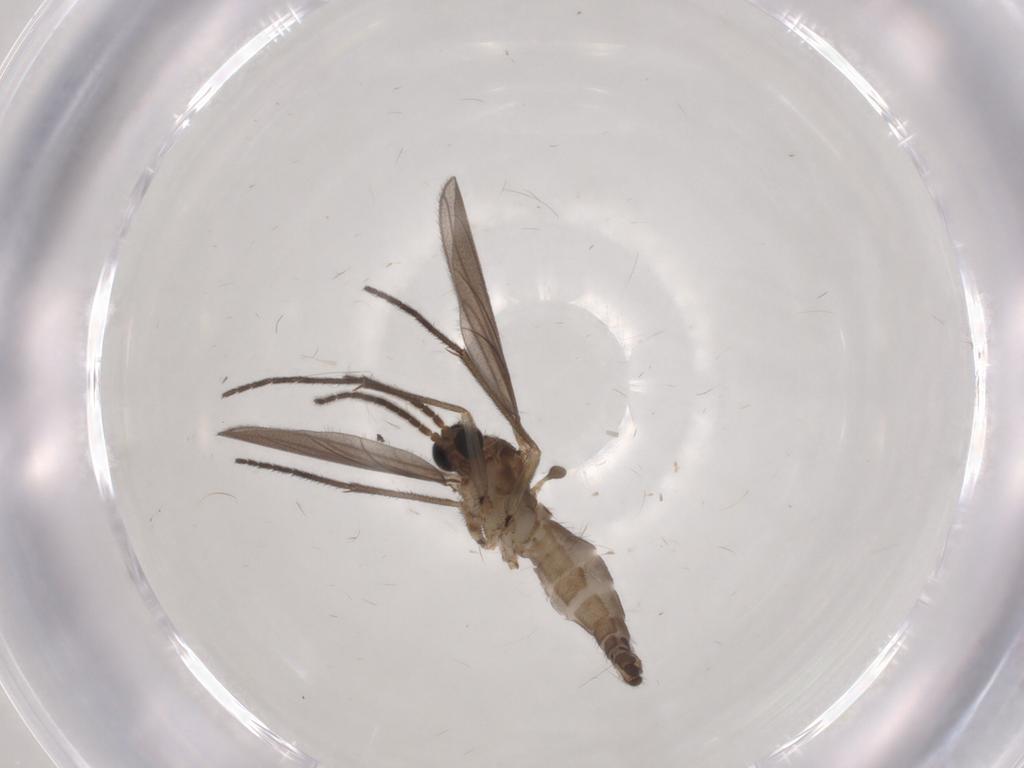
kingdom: Animalia
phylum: Arthropoda
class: Insecta
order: Diptera
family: Sciaridae
